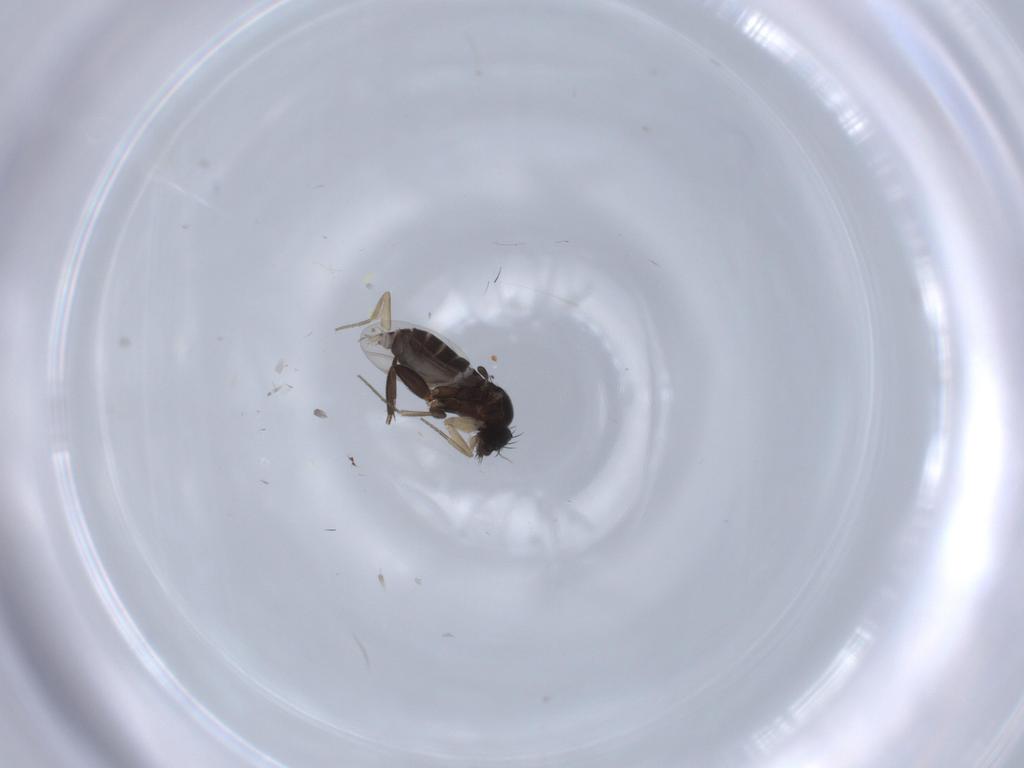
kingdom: Animalia
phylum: Arthropoda
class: Insecta
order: Diptera
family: Phoridae
